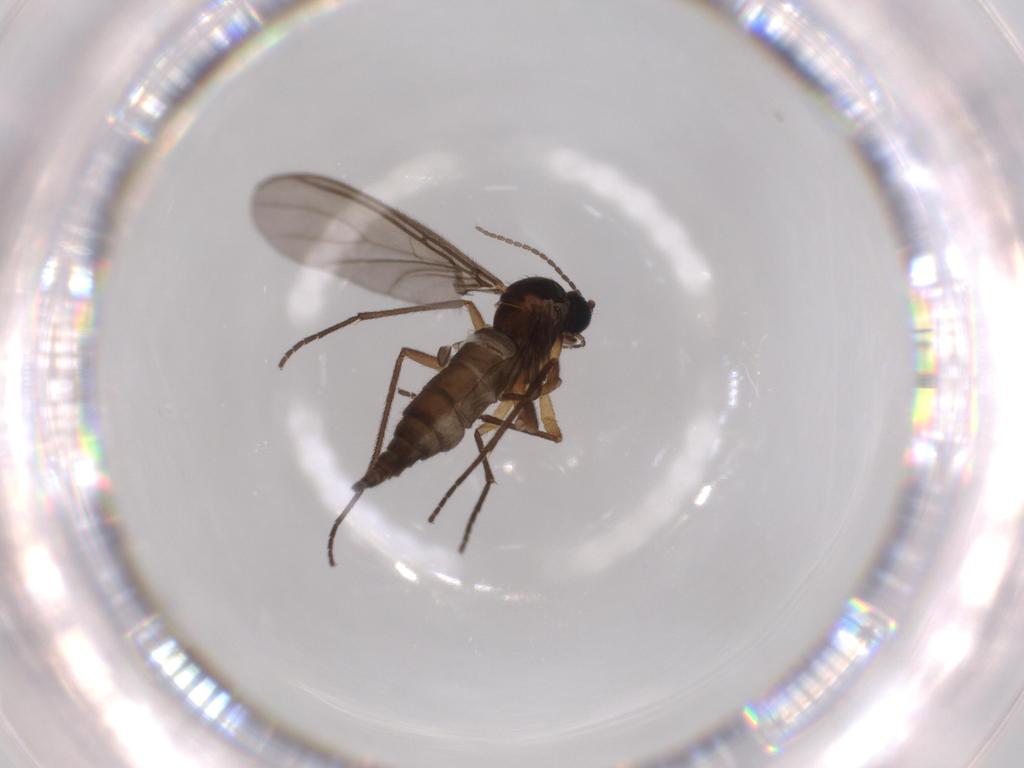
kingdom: Animalia
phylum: Arthropoda
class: Insecta
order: Diptera
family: Sciaridae
